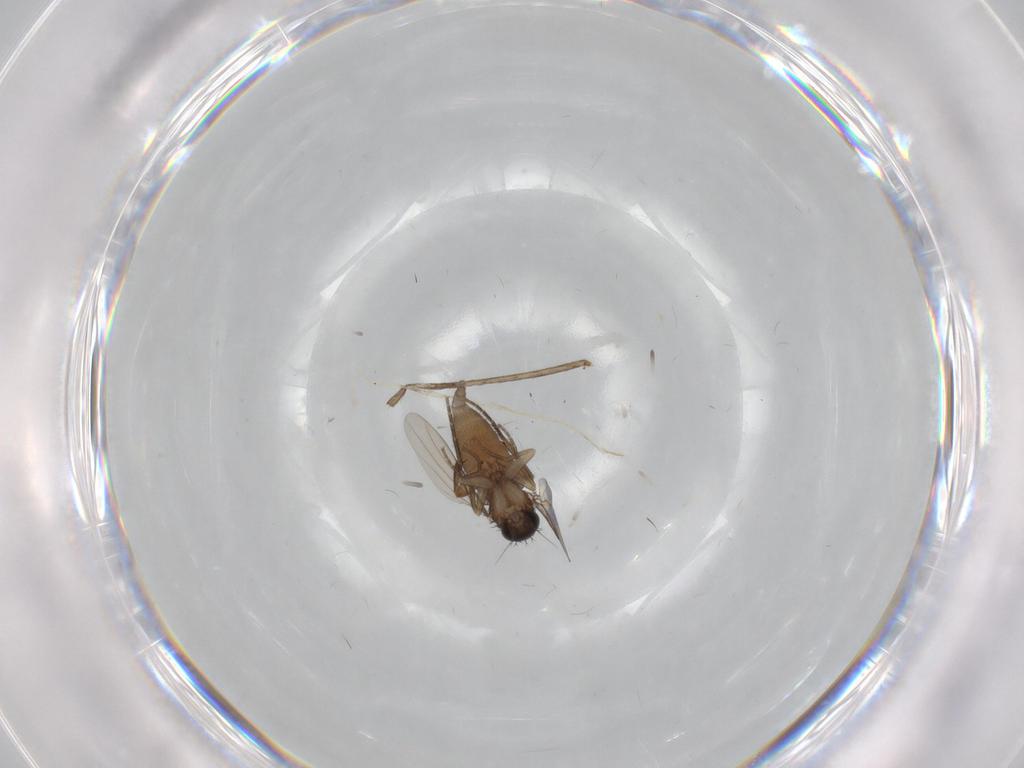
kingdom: Animalia
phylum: Arthropoda
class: Insecta
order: Diptera
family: Phoridae
